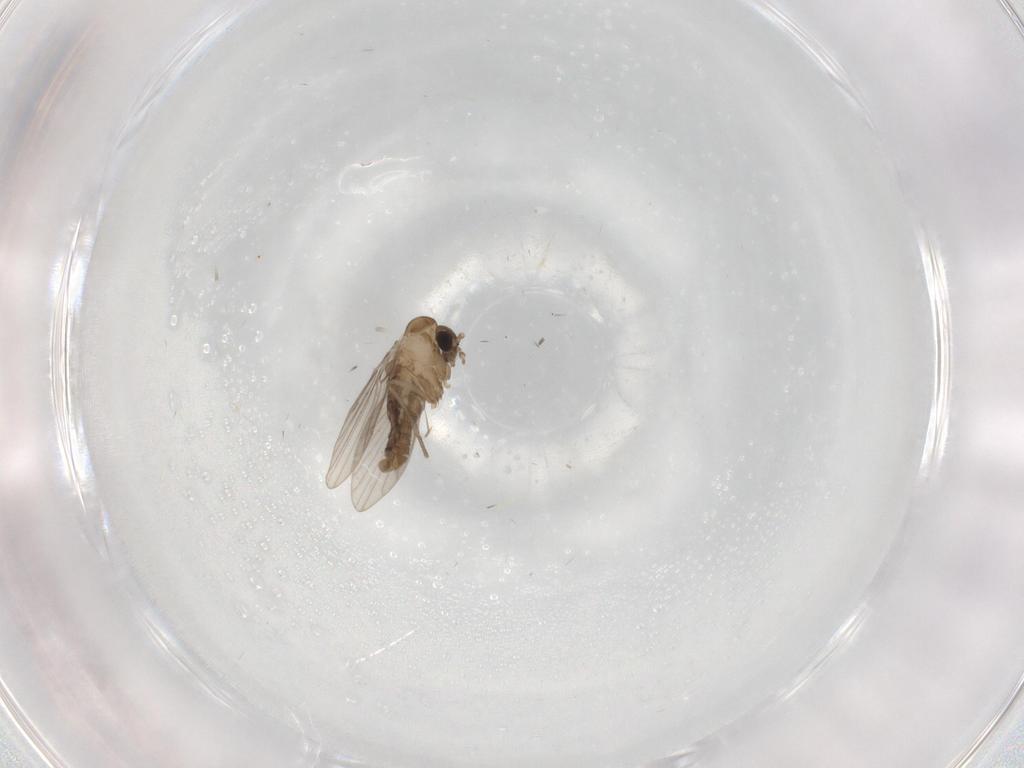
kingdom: Animalia
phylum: Arthropoda
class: Insecta
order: Diptera
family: Psychodidae
